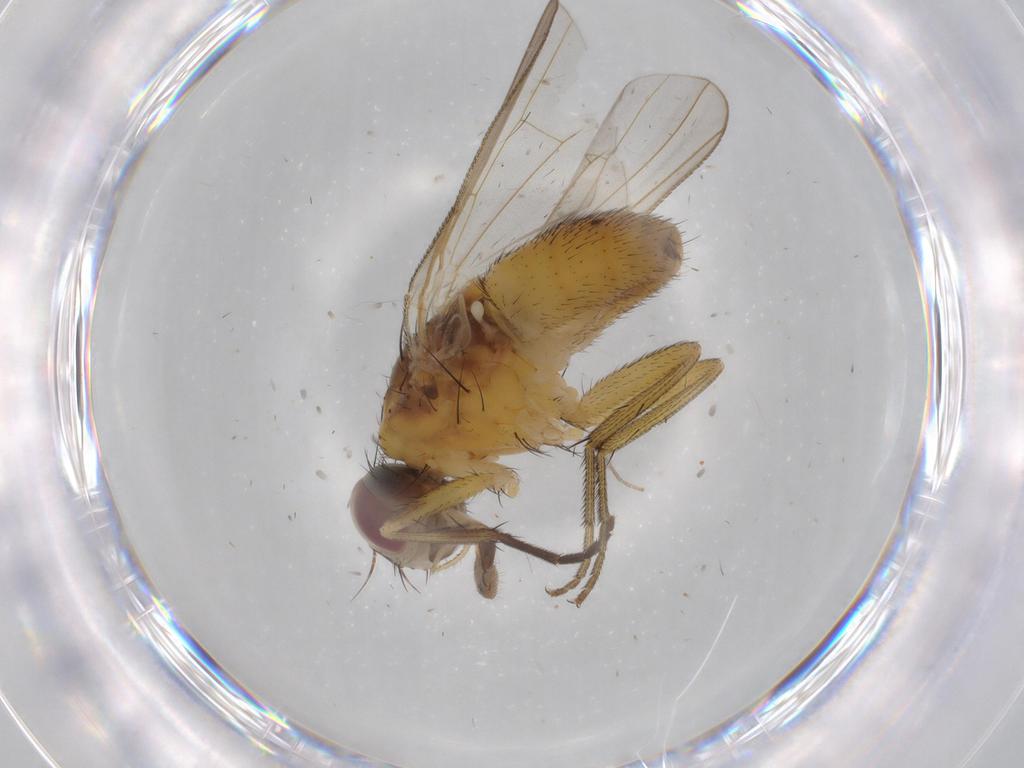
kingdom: Animalia
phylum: Arthropoda
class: Insecta
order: Diptera
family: Muscidae
